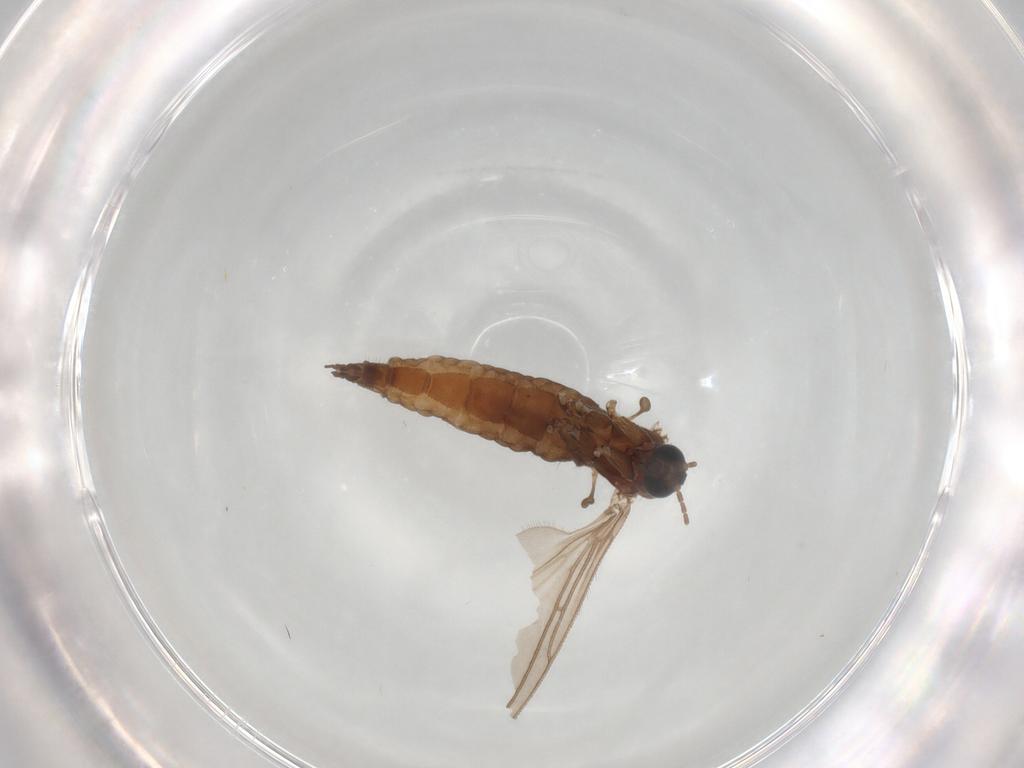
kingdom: Animalia
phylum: Arthropoda
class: Insecta
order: Diptera
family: Sciaridae
